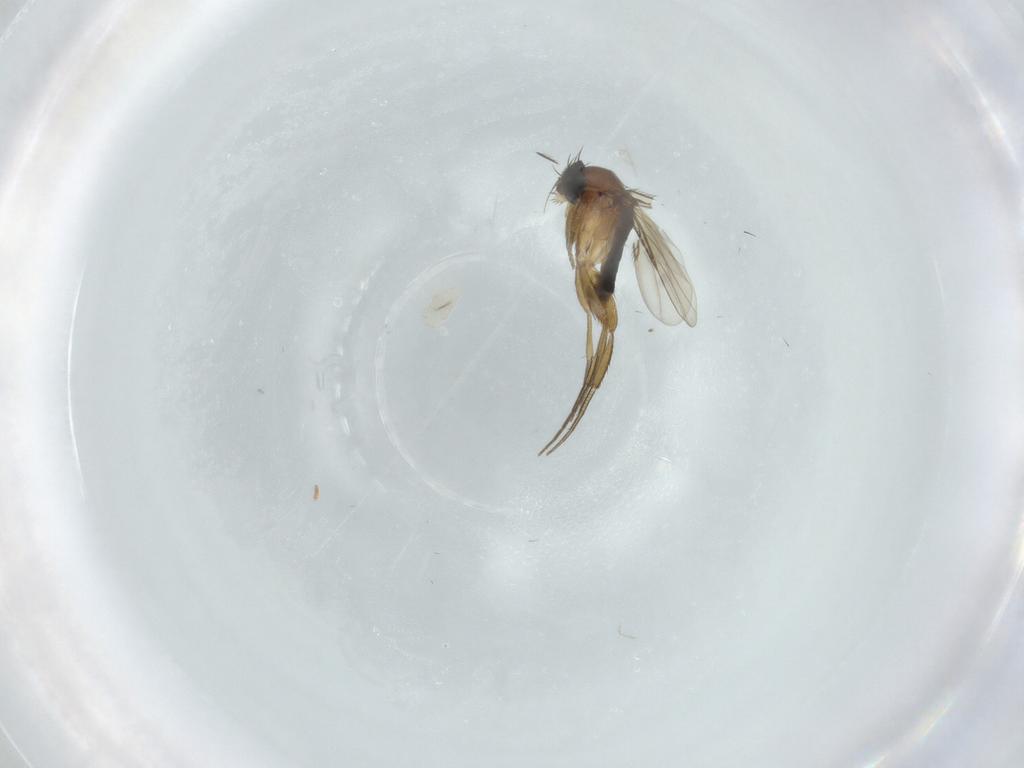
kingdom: Animalia
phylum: Arthropoda
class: Insecta
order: Diptera
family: Phoridae
